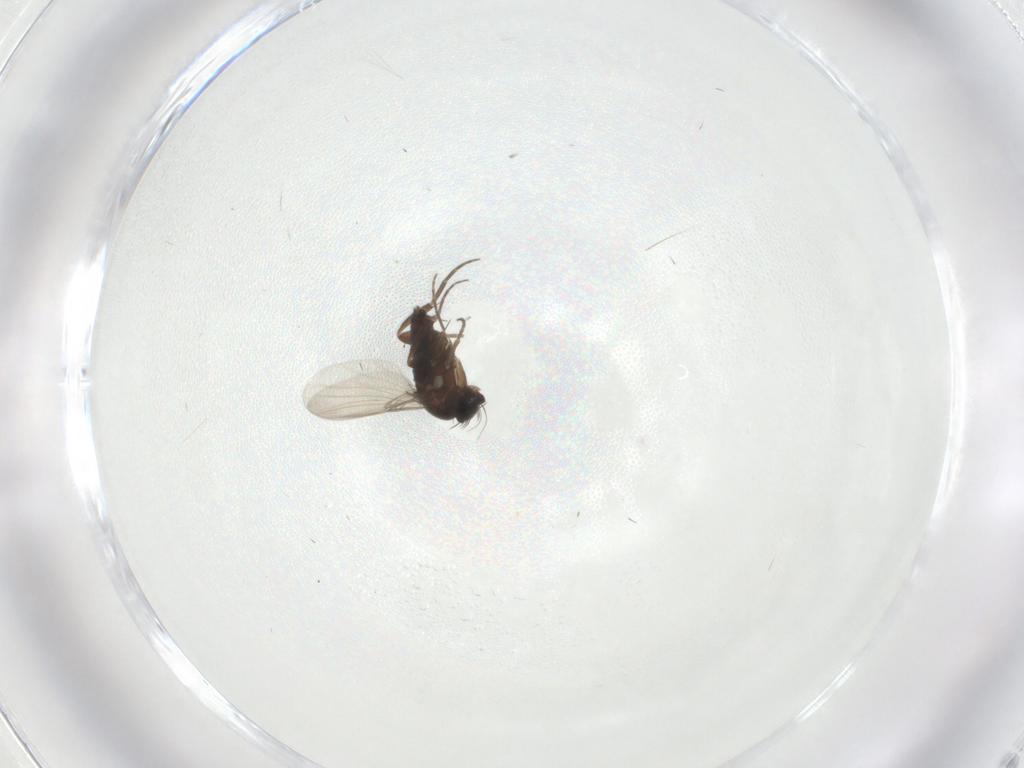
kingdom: Animalia
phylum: Arthropoda
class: Insecta
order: Diptera
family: Phoridae
